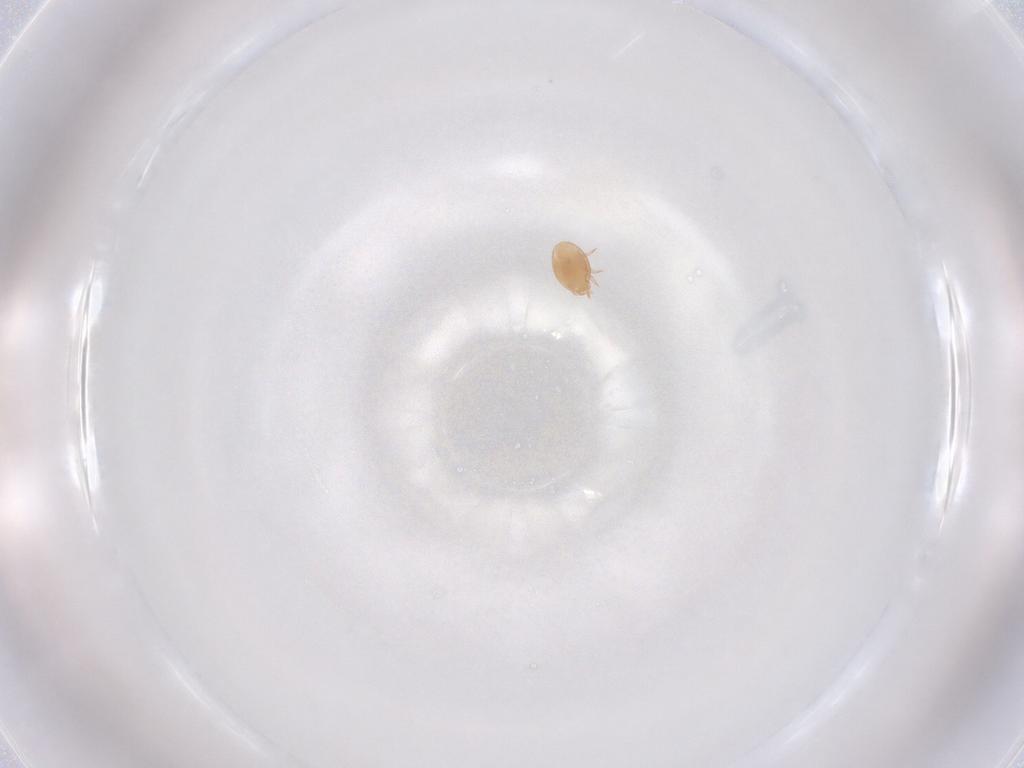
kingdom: Animalia
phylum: Arthropoda
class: Arachnida
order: Mesostigmata
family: Trematuridae
